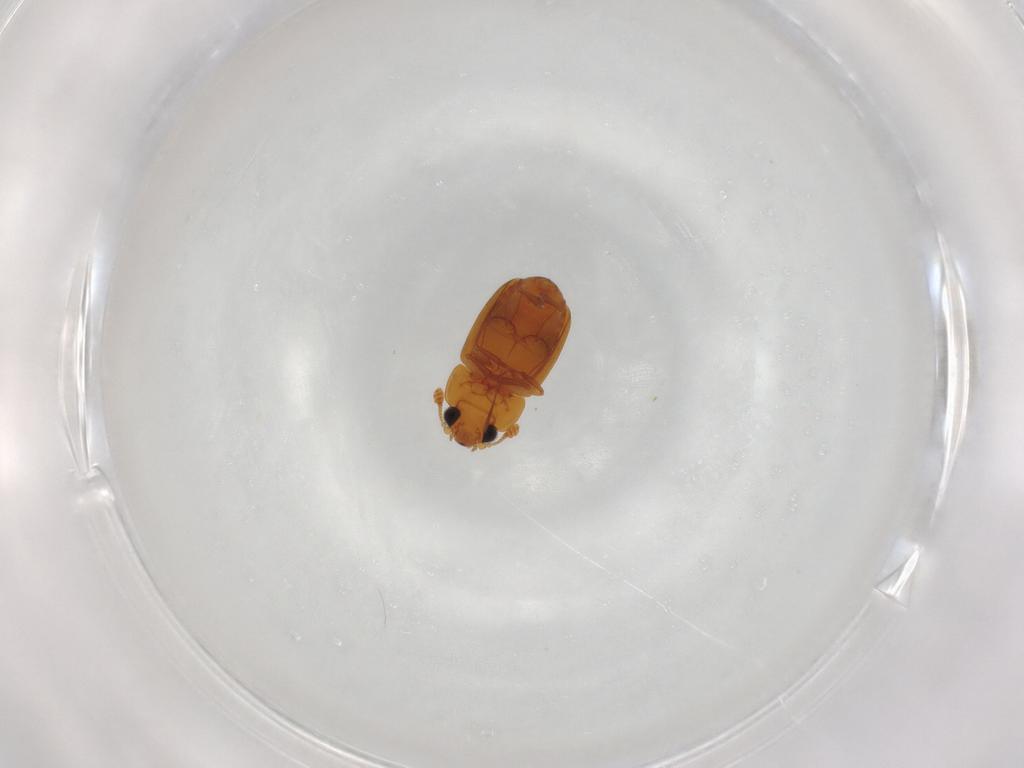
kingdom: Animalia
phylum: Arthropoda
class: Insecta
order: Coleoptera
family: Nitidulidae
